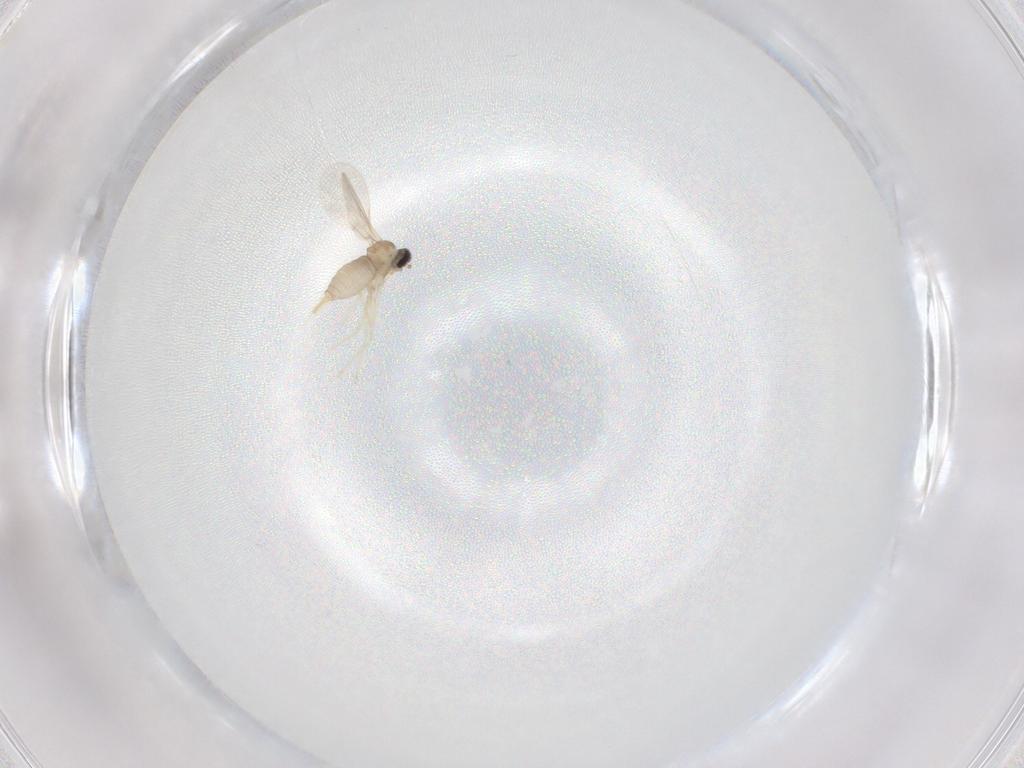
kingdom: Animalia
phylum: Arthropoda
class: Insecta
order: Diptera
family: Cecidomyiidae
